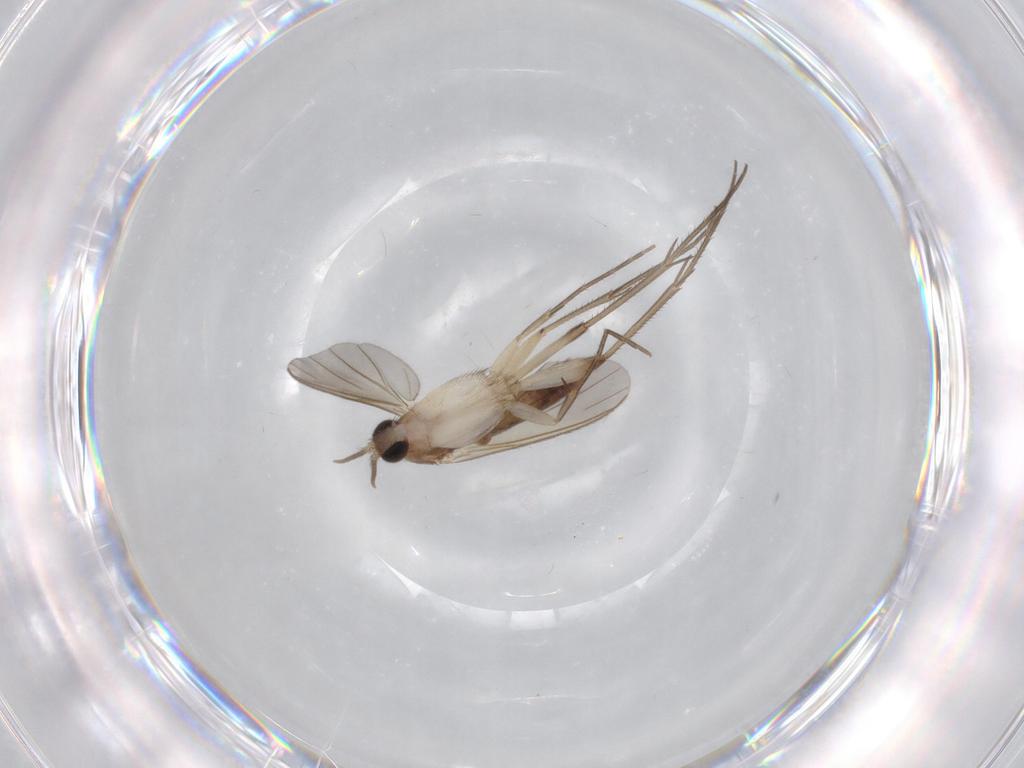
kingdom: Animalia
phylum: Arthropoda
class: Insecta
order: Diptera
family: Mycetophilidae
